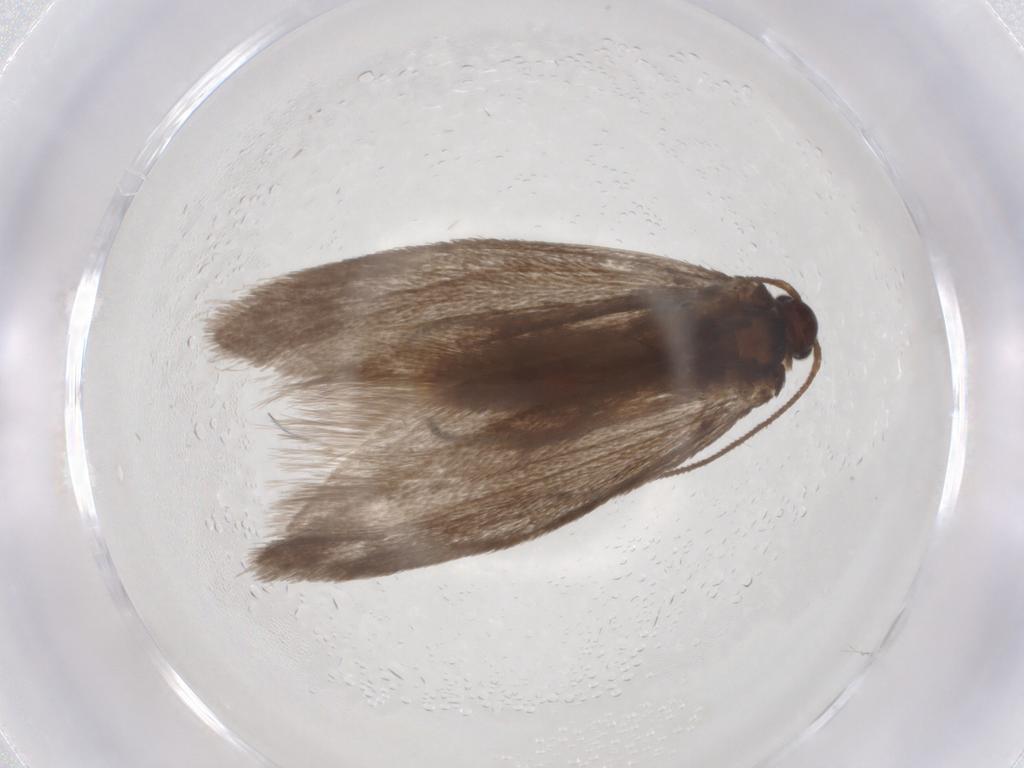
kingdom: Animalia
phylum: Arthropoda
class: Insecta
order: Lepidoptera
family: Limacodidae
